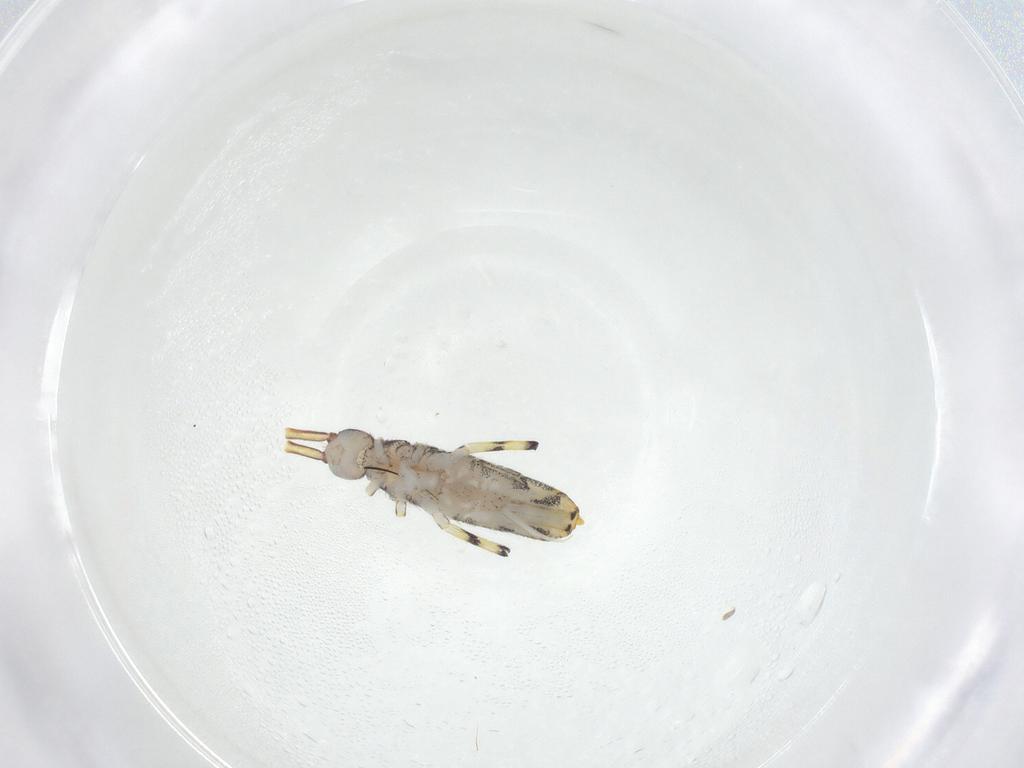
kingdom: Animalia
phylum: Arthropoda
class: Collembola
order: Entomobryomorpha
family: Entomobryidae
